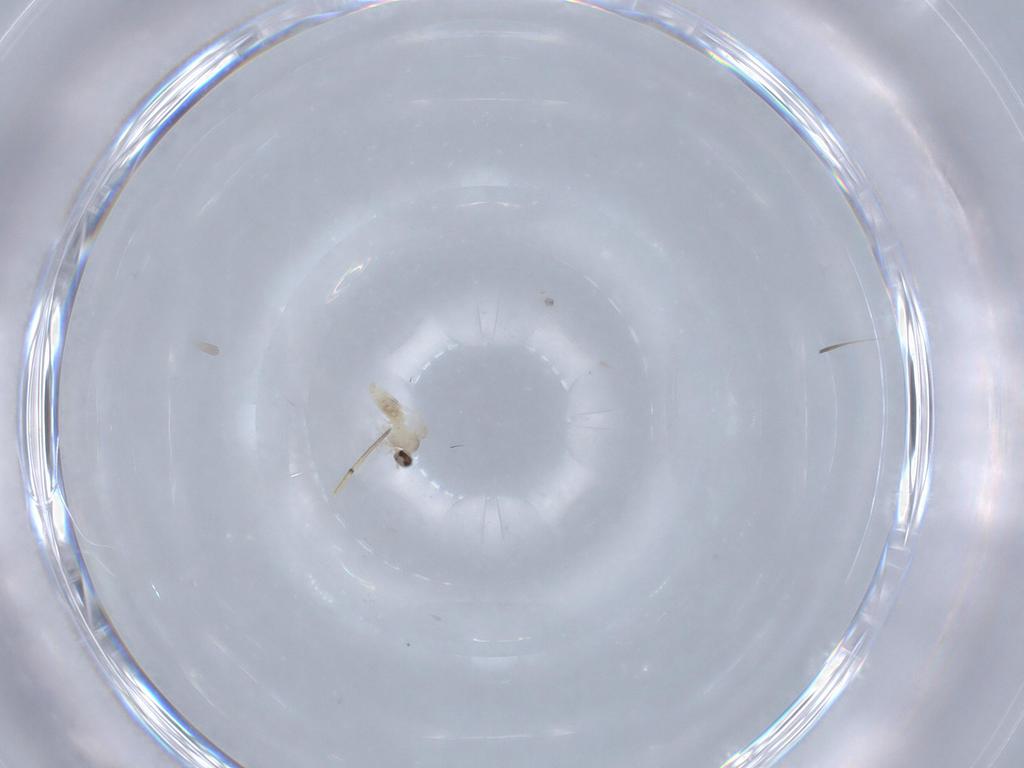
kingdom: Animalia
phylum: Arthropoda
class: Insecta
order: Diptera
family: Cecidomyiidae
